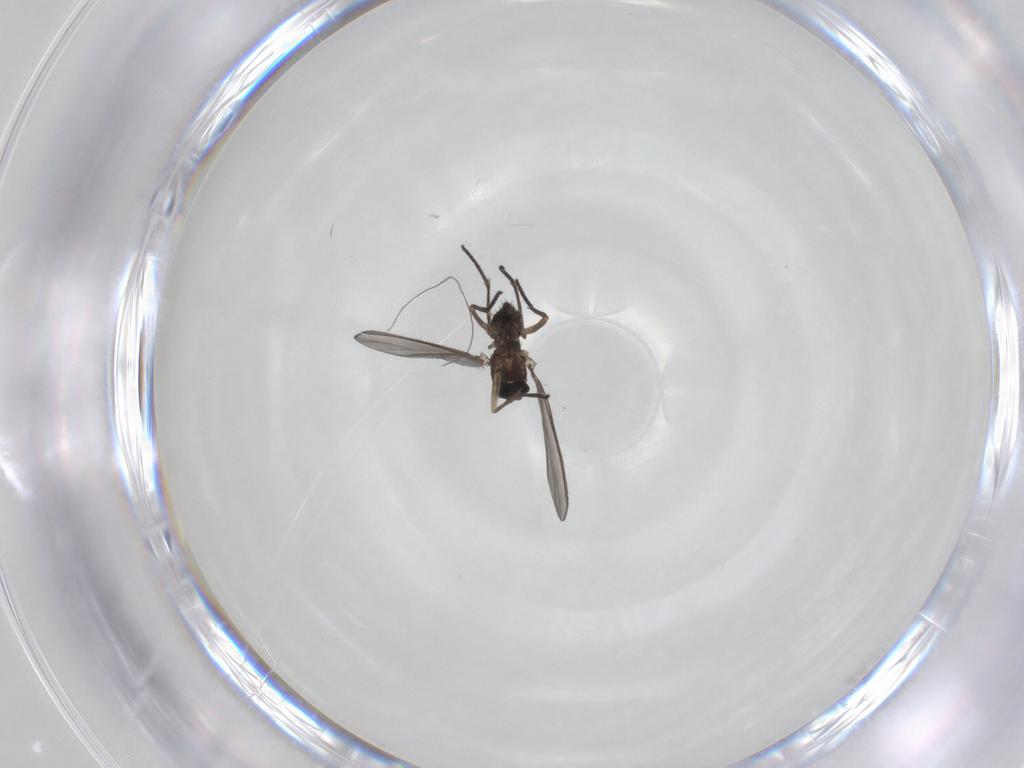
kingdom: Animalia
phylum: Arthropoda
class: Insecta
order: Diptera
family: Sciaridae
